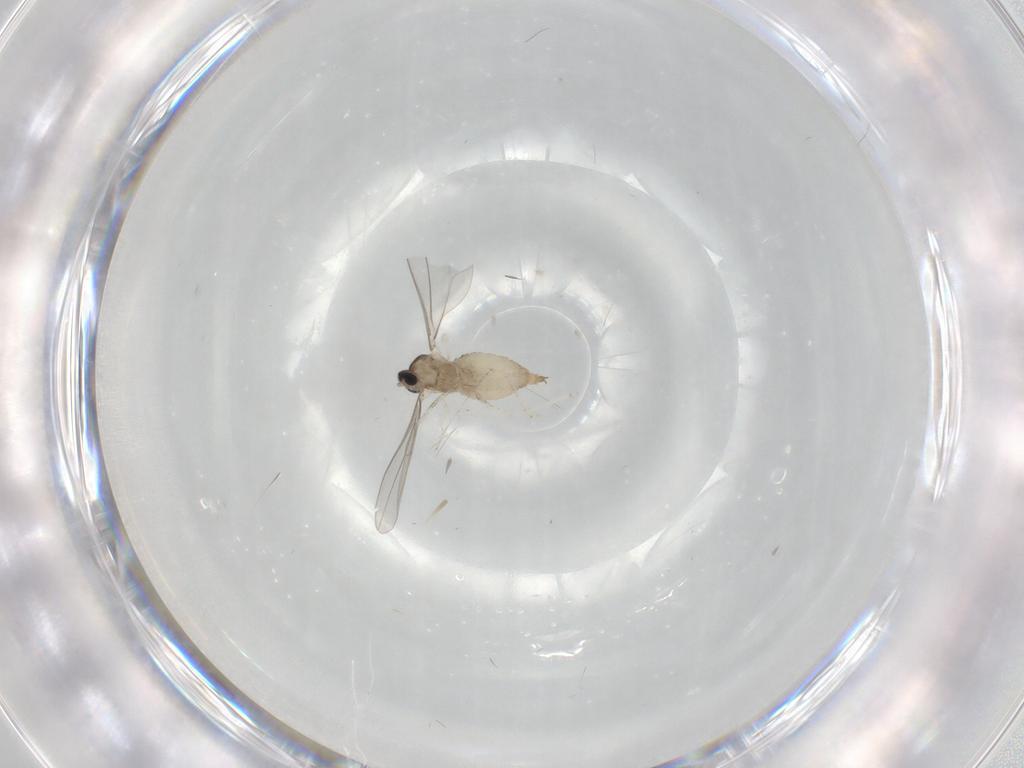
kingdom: Animalia
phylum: Arthropoda
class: Insecta
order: Diptera
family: Cecidomyiidae
